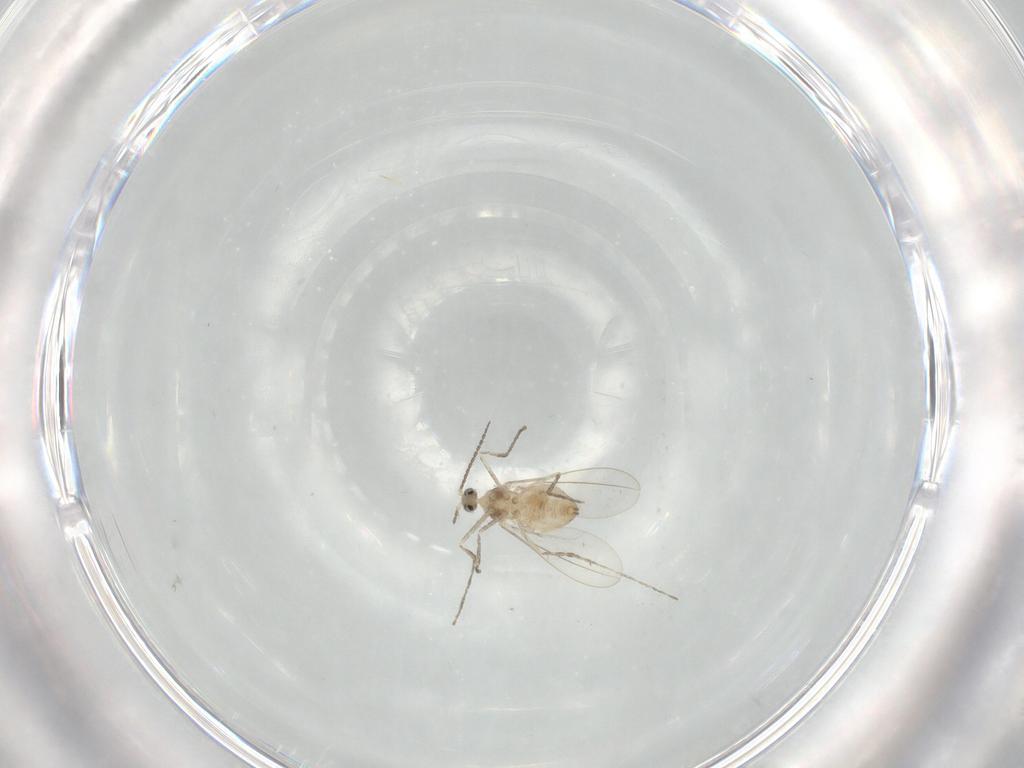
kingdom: Animalia
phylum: Arthropoda
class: Insecta
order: Diptera
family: Cecidomyiidae
